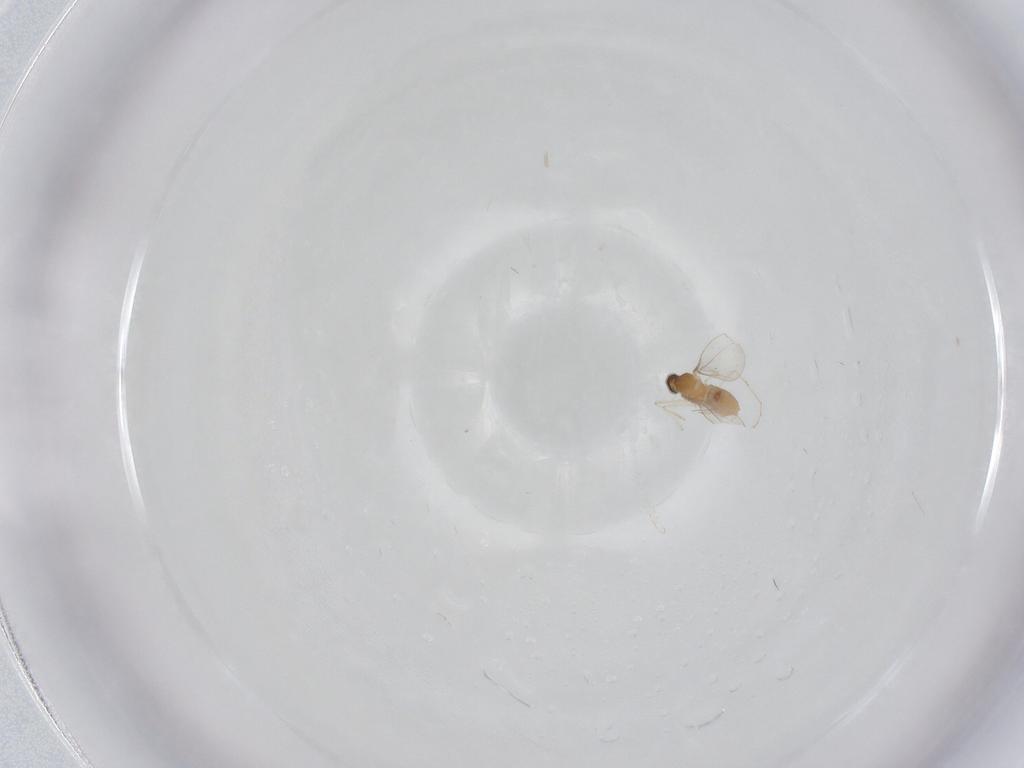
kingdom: Animalia
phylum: Arthropoda
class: Insecta
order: Diptera
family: Cecidomyiidae
